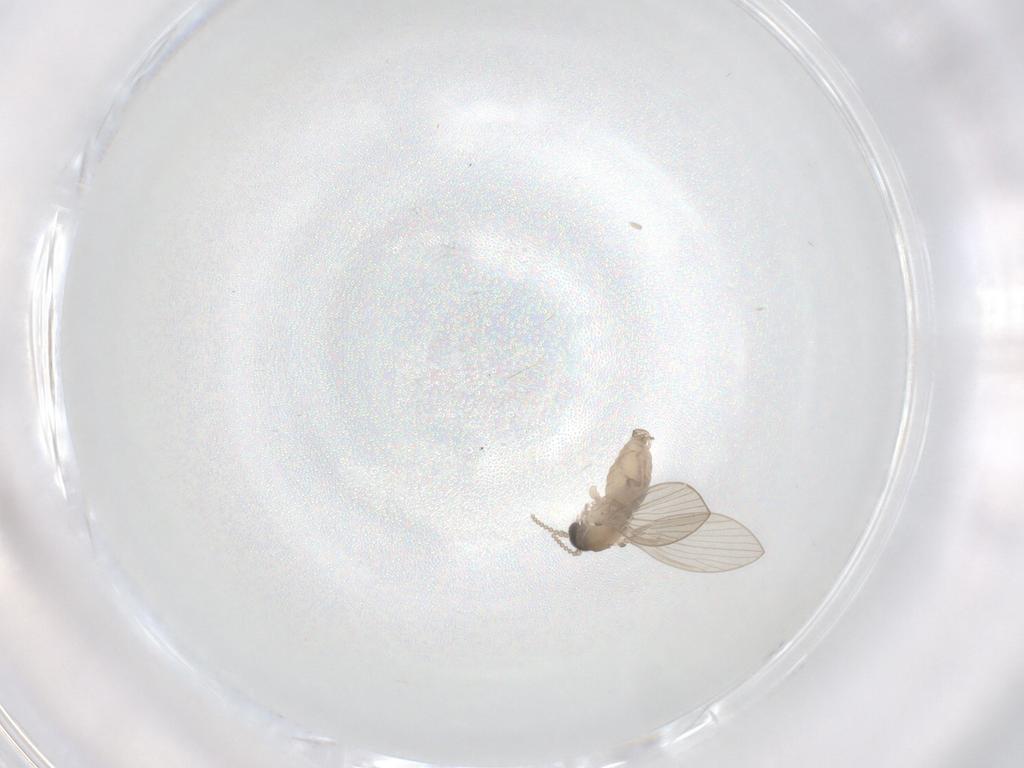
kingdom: Animalia
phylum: Arthropoda
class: Insecta
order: Diptera
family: Psychodidae
